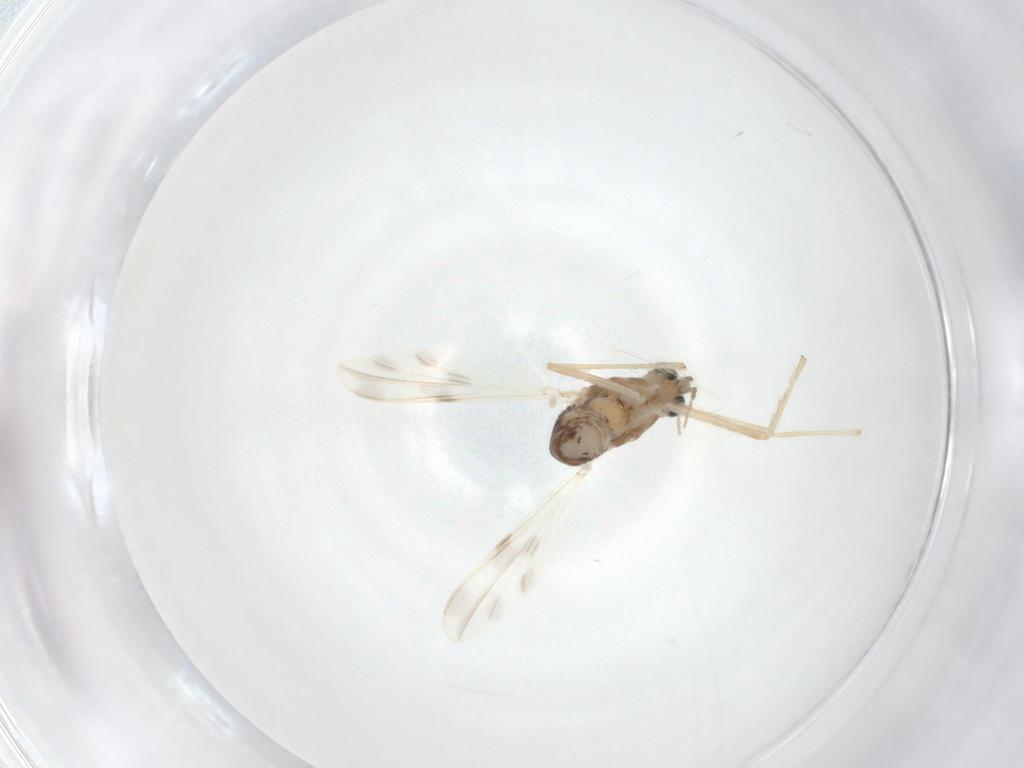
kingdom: Animalia
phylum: Arthropoda
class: Insecta
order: Diptera
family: Chironomidae
